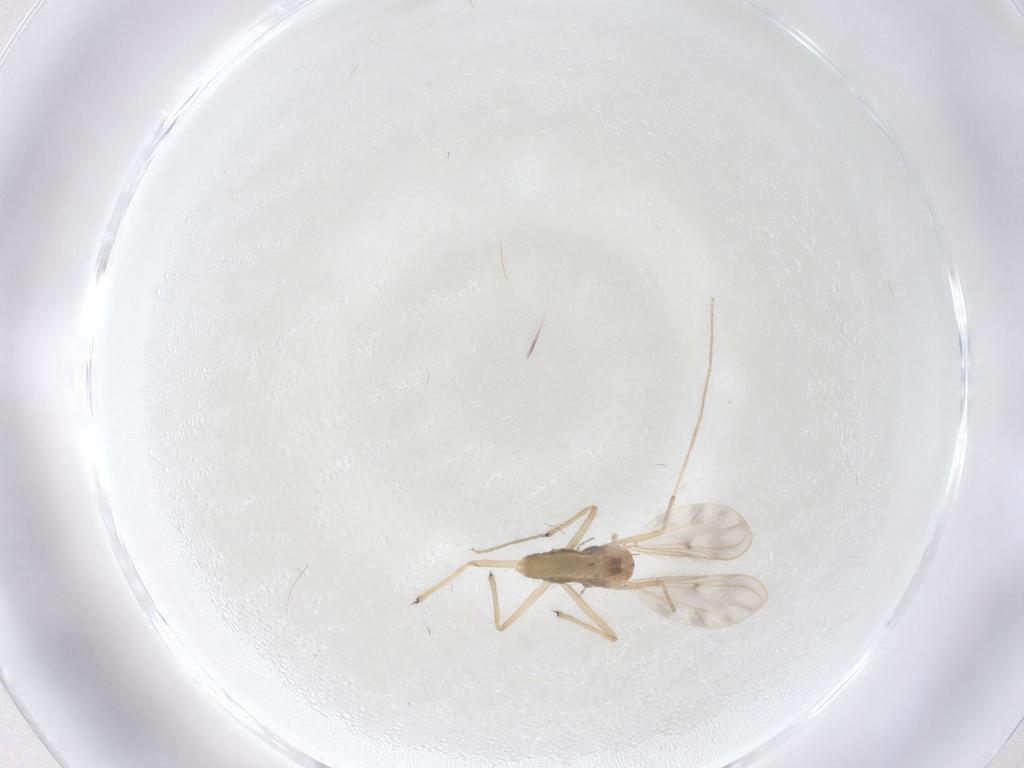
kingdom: Animalia
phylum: Arthropoda
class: Insecta
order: Diptera
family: Chironomidae
